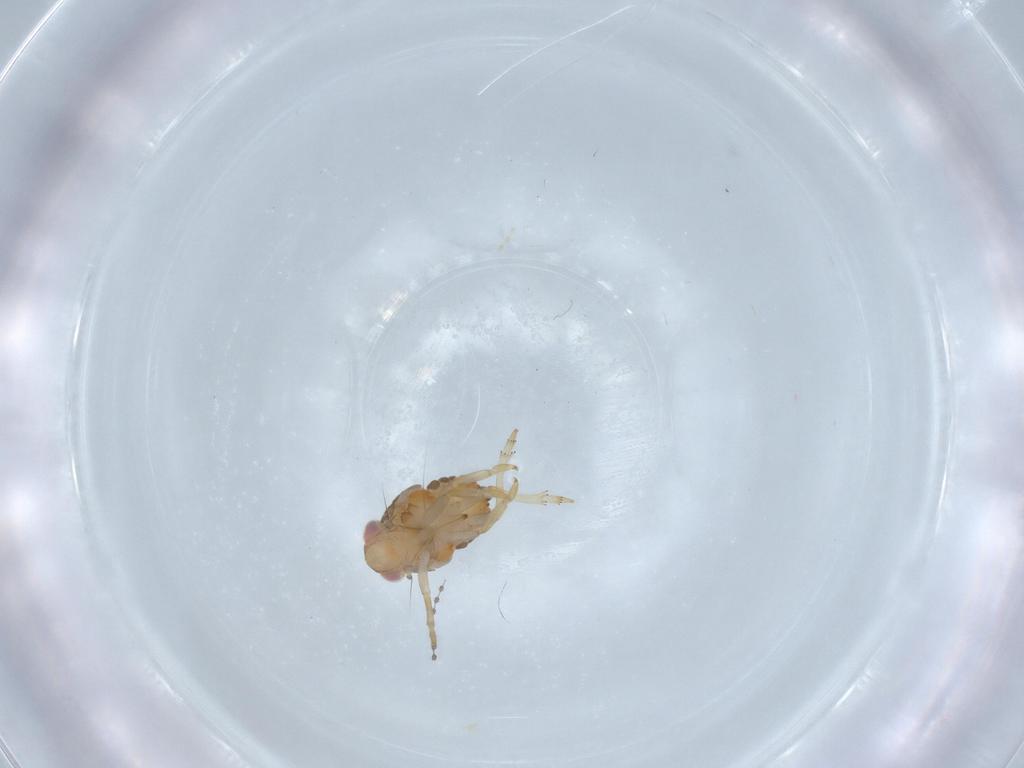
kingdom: Animalia
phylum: Arthropoda
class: Insecta
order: Hemiptera
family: Issidae
